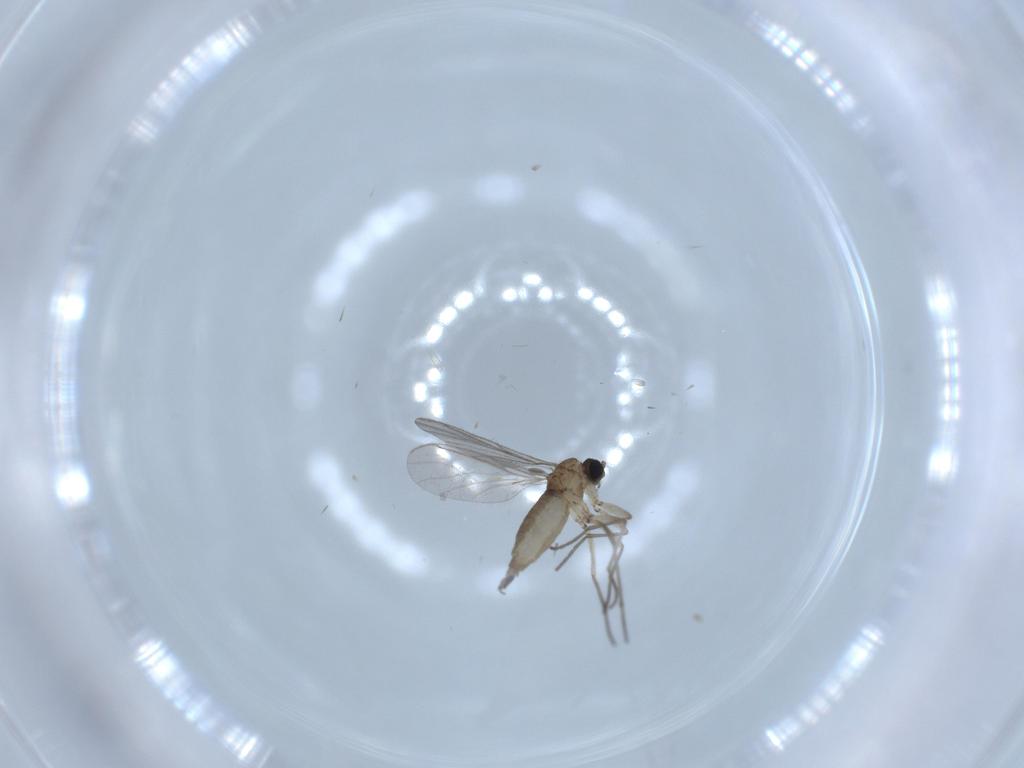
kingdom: Animalia
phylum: Arthropoda
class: Insecta
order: Diptera
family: Sciaridae
